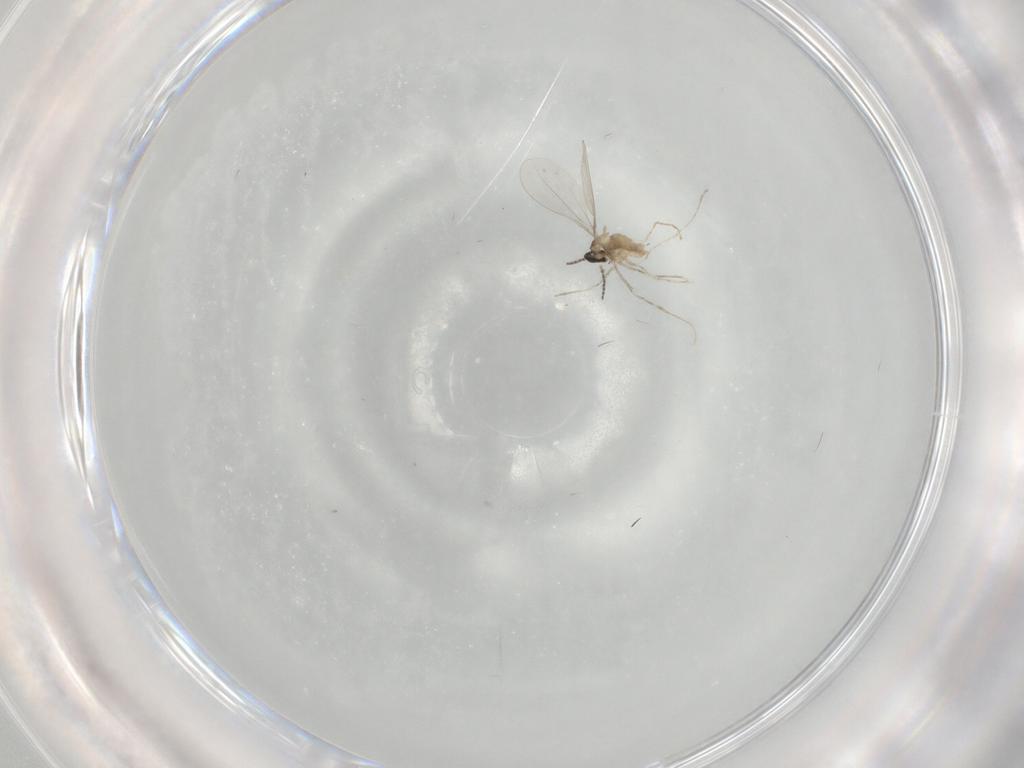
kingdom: Animalia
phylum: Arthropoda
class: Insecta
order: Diptera
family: Cecidomyiidae
